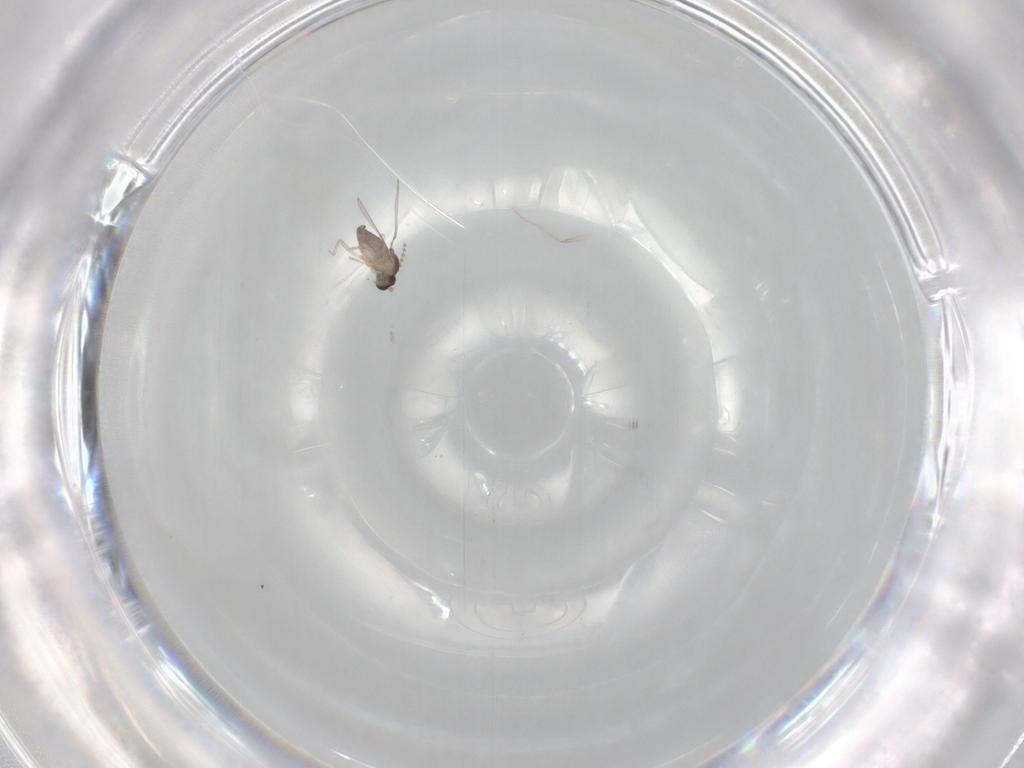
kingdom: Animalia
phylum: Arthropoda
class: Insecta
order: Diptera
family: Cecidomyiidae
